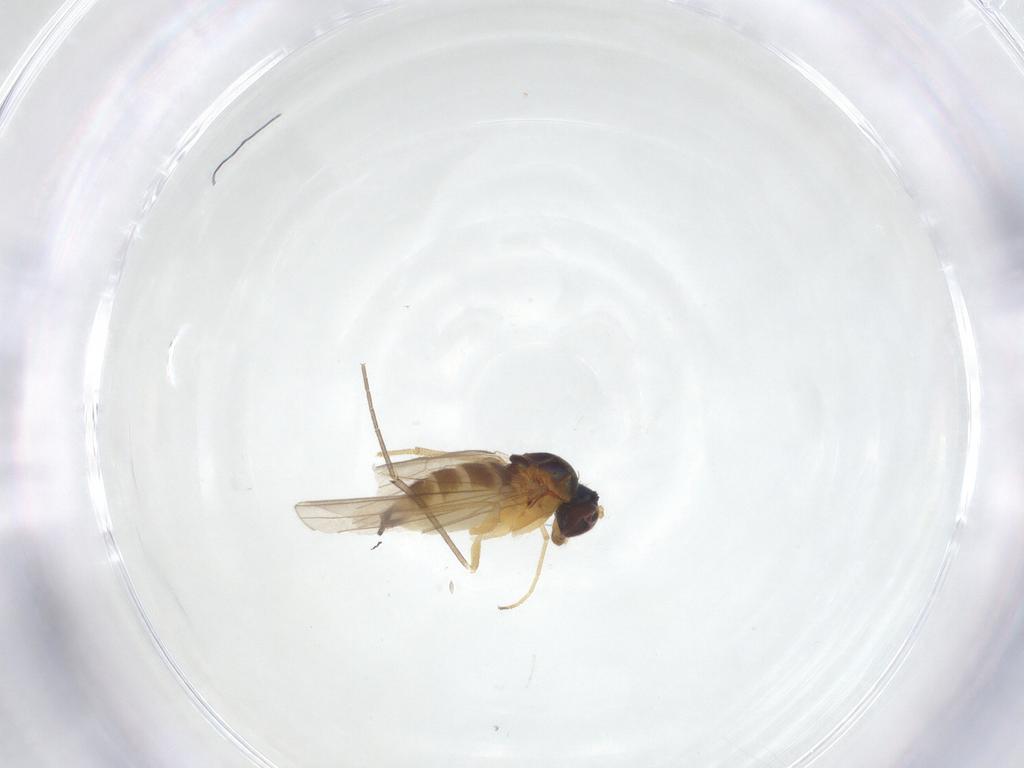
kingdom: Animalia
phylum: Arthropoda
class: Insecta
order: Diptera
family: Dolichopodidae
